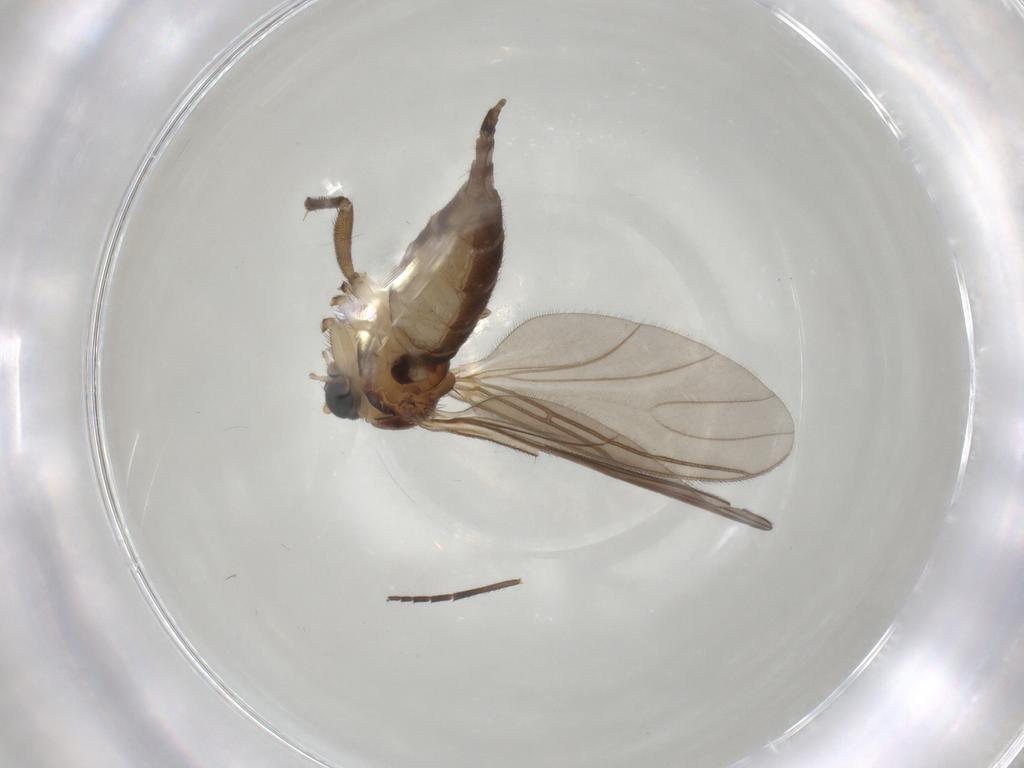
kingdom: Animalia
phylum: Arthropoda
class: Insecta
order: Diptera
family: Sciaridae
